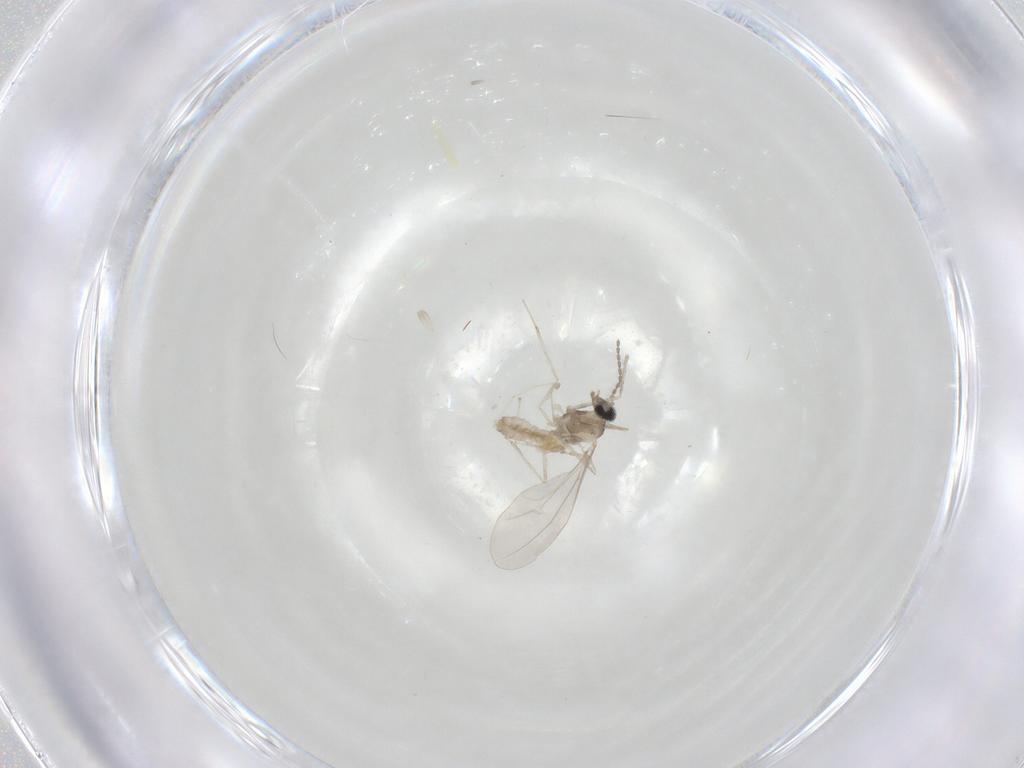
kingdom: Animalia
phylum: Arthropoda
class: Insecta
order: Diptera
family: Cecidomyiidae
